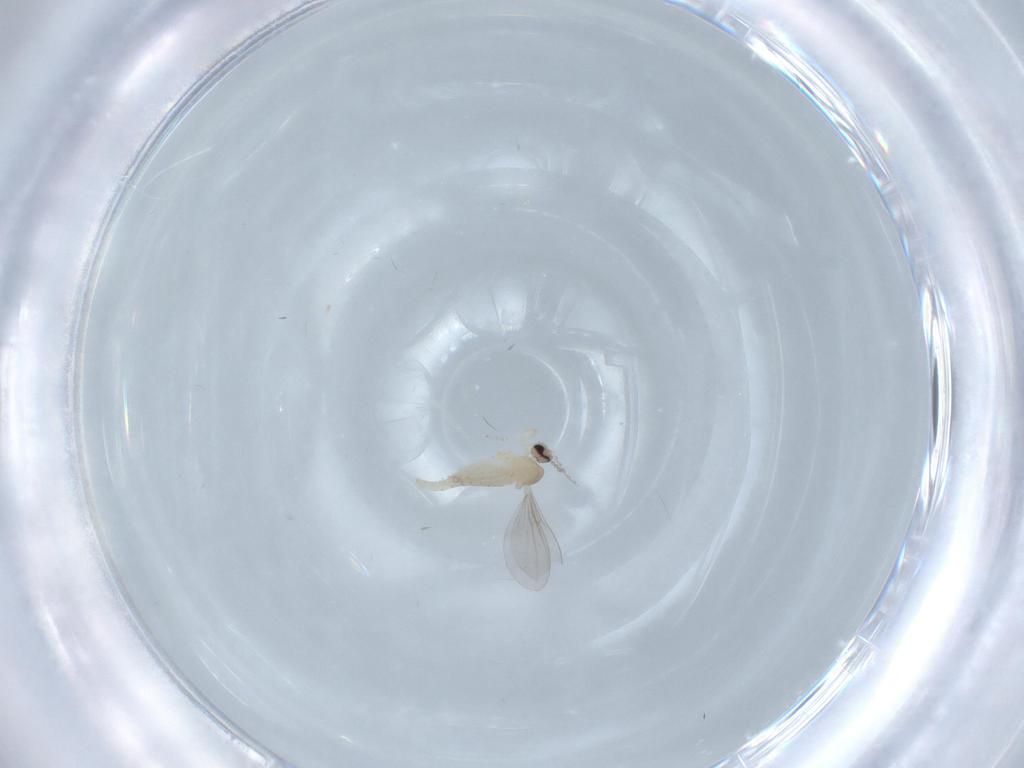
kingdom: Animalia
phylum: Arthropoda
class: Insecta
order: Diptera
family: Cecidomyiidae
